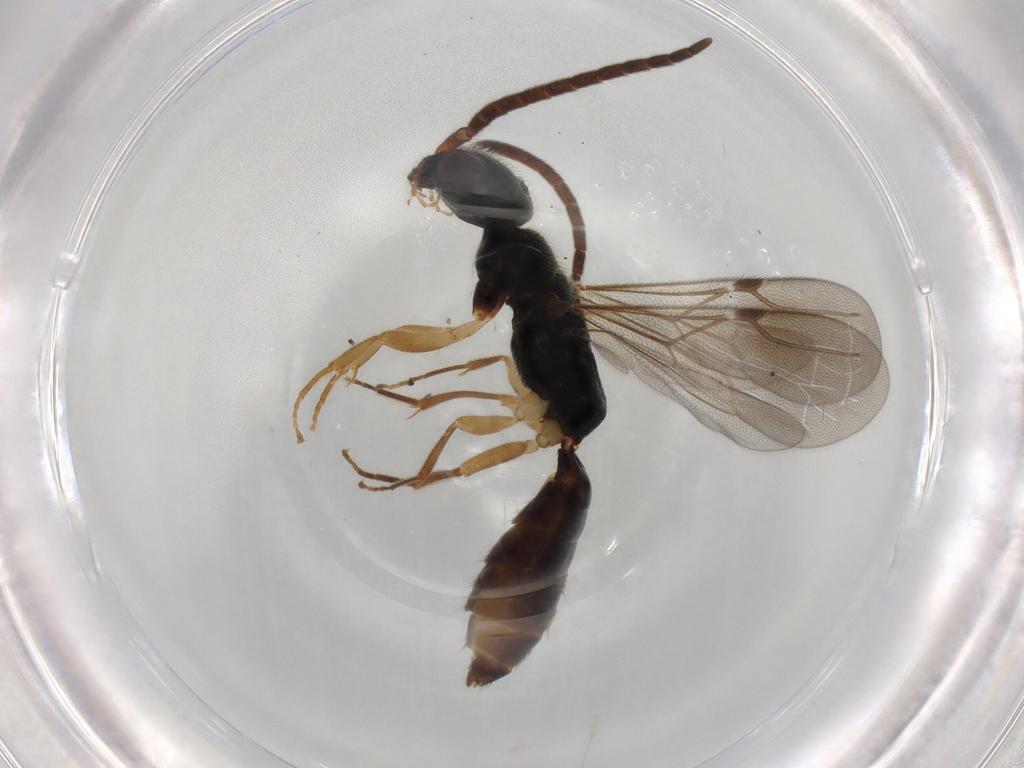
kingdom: Animalia
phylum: Arthropoda
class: Insecta
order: Hymenoptera
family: Bethylidae
